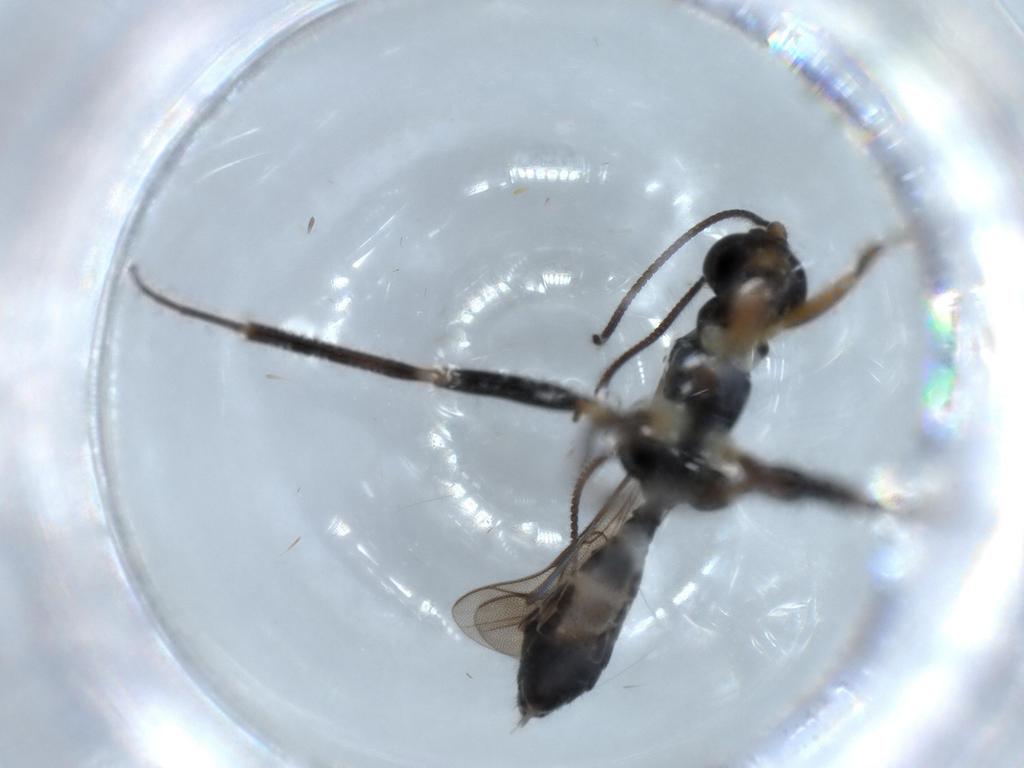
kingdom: Animalia
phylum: Arthropoda
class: Insecta
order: Hymenoptera
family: Ichneumonidae
